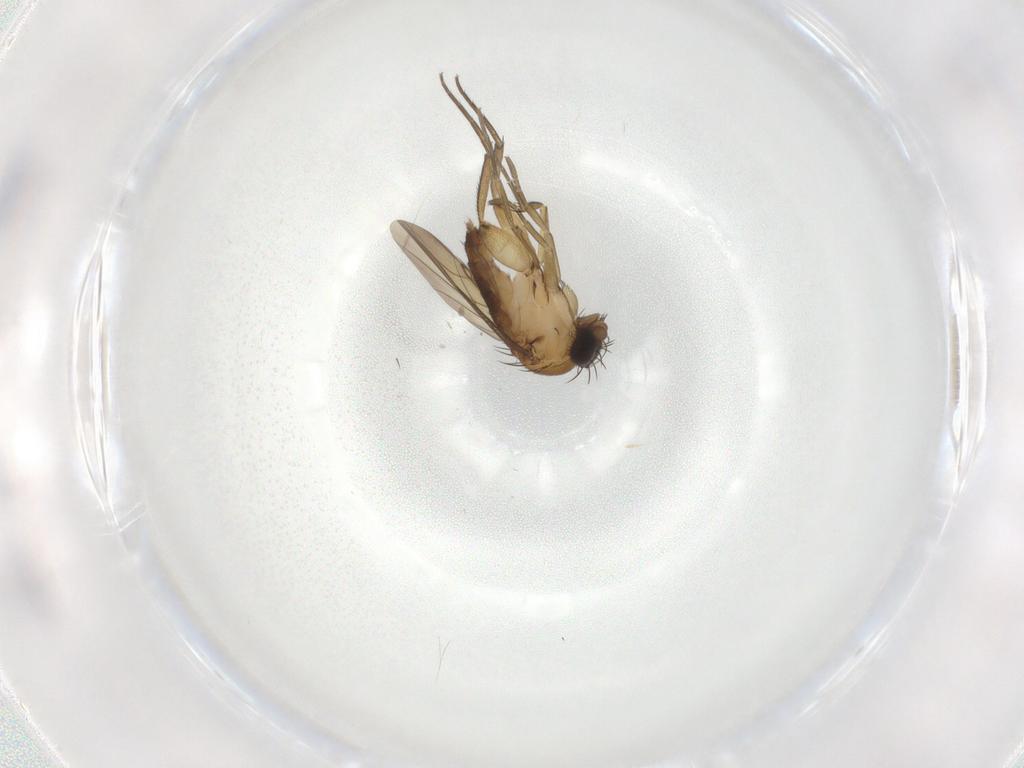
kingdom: Animalia
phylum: Arthropoda
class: Insecta
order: Diptera
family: Phoridae
